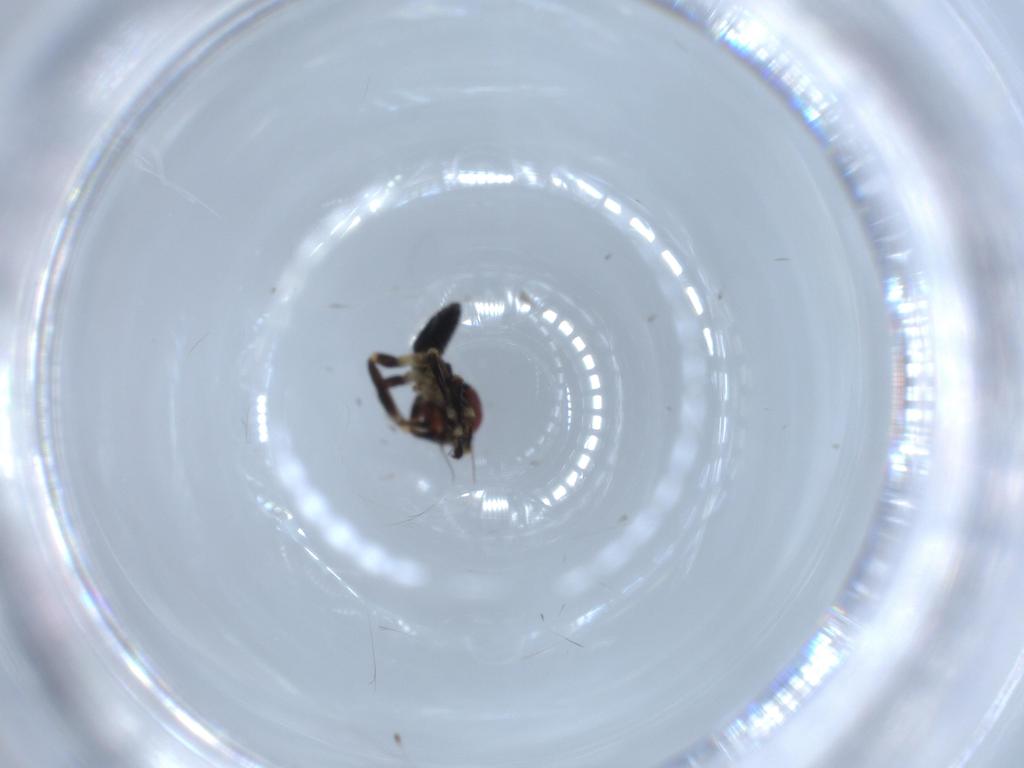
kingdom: Animalia
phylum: Arthropoda
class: Insecta
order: Hemiptera
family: Cicadellidae
